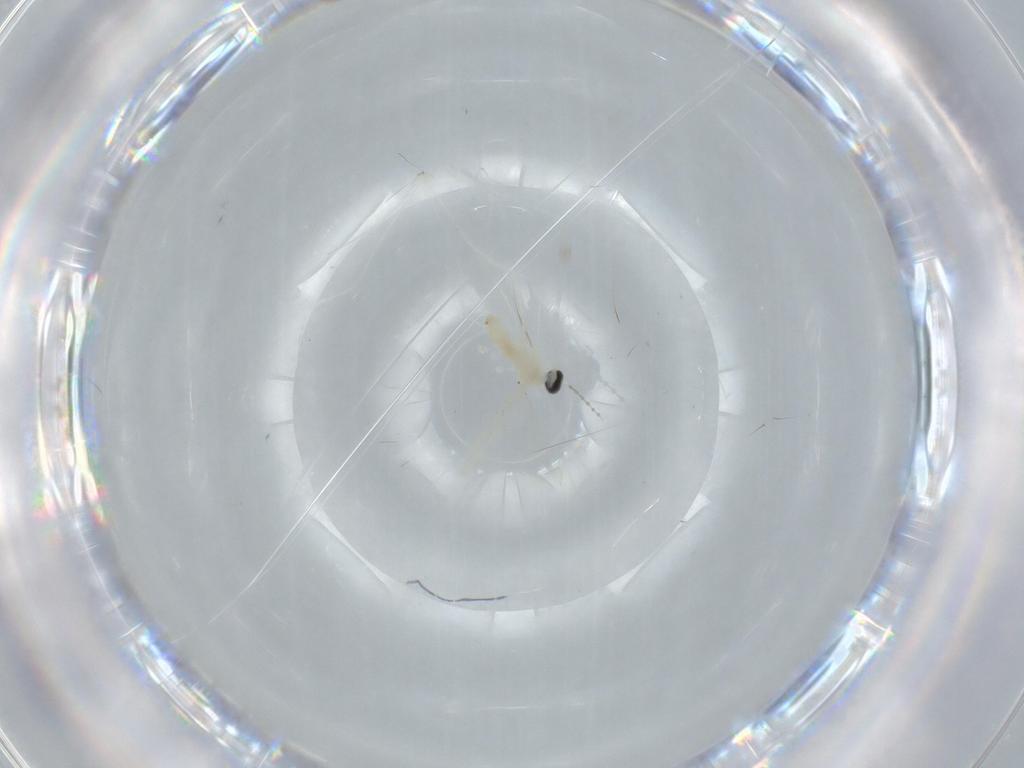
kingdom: Animalia
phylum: Arthropoda
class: Insecta
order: Diptera
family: Cecidomyiidae
